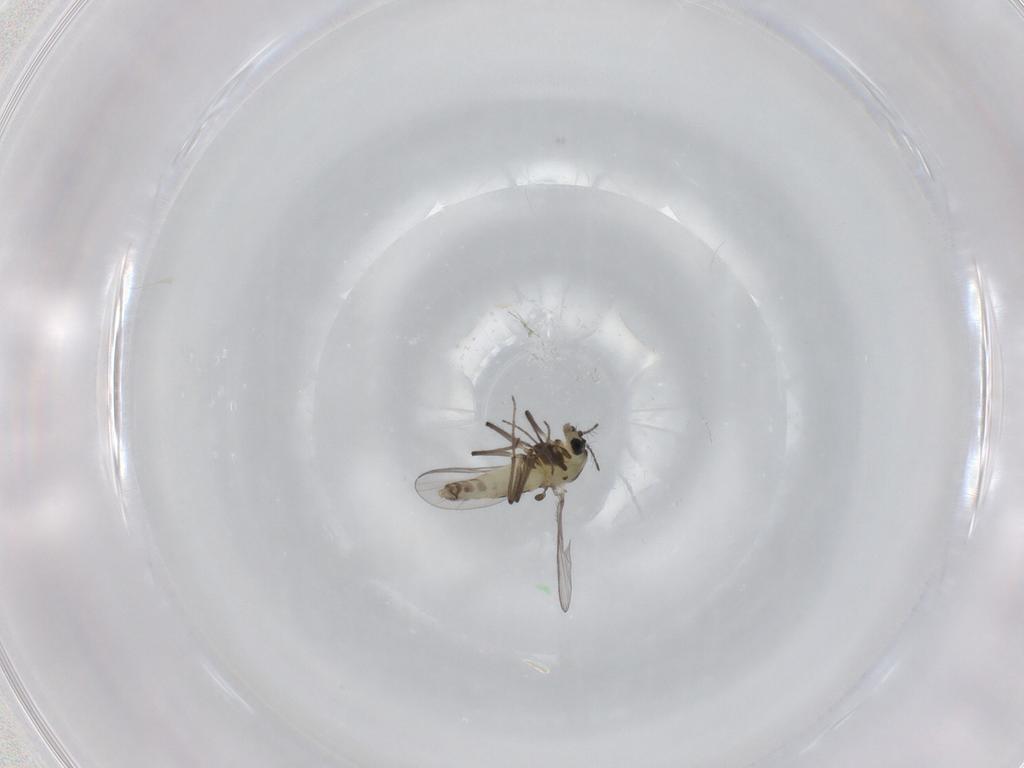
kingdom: Animalia
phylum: Arthropoda
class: Insecta
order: Diptera
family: Chironomidae
